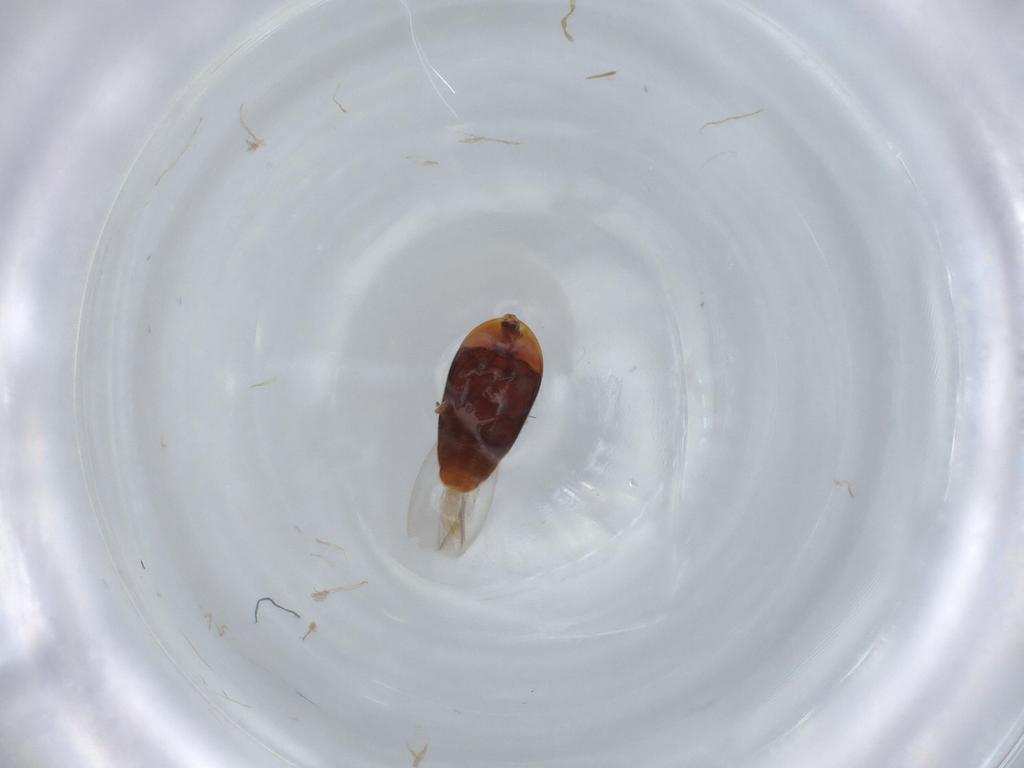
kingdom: Animalia
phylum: Arthropoda
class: Insecta
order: Coleoptera
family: Corylophidae
